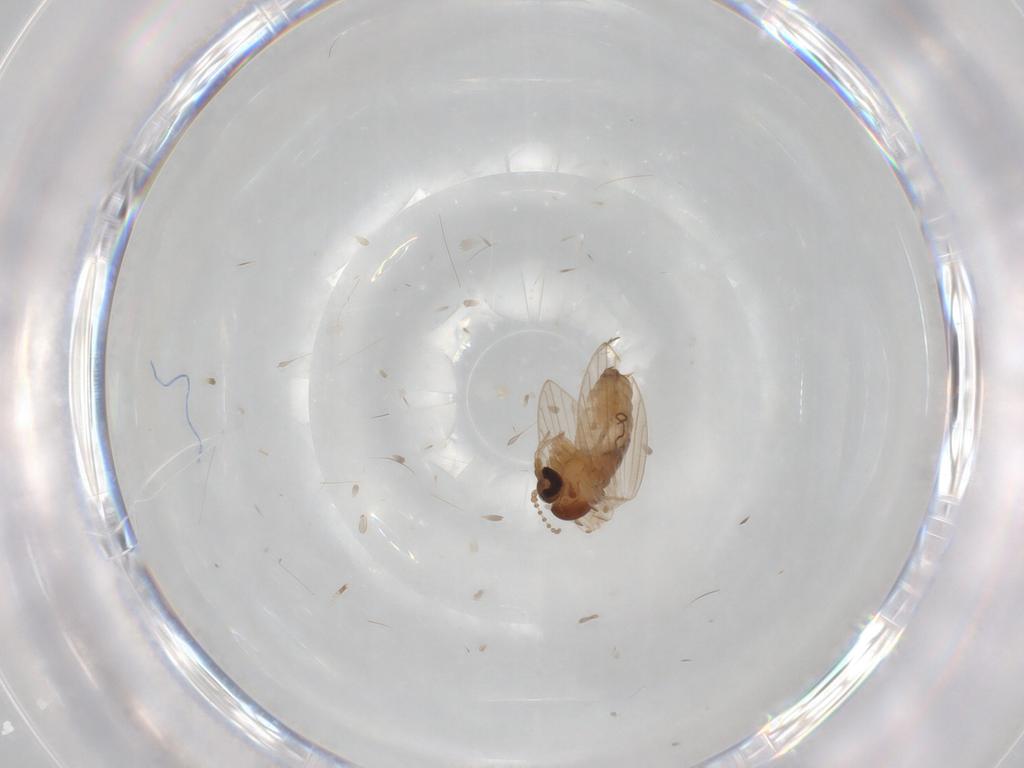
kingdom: Animalia
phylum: Arthropoda
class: Insecta
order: Diptera
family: Psychodidae
